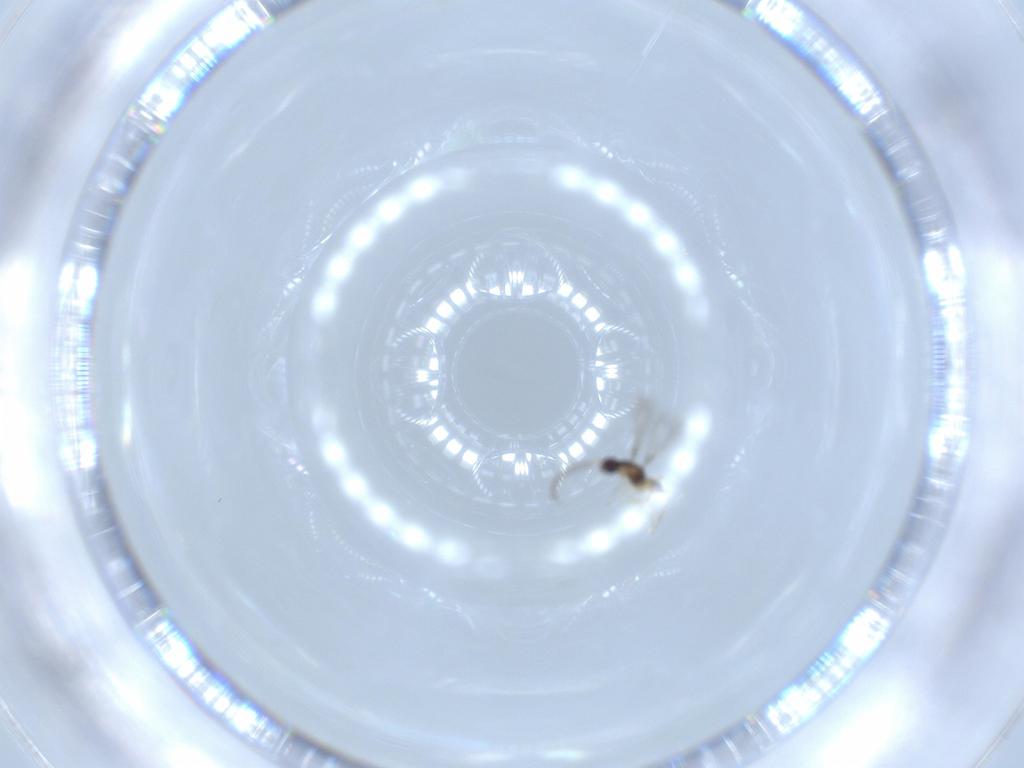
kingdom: Animalia
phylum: Arthropoda
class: Insecta
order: Hymenoptera
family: Mymaridae
